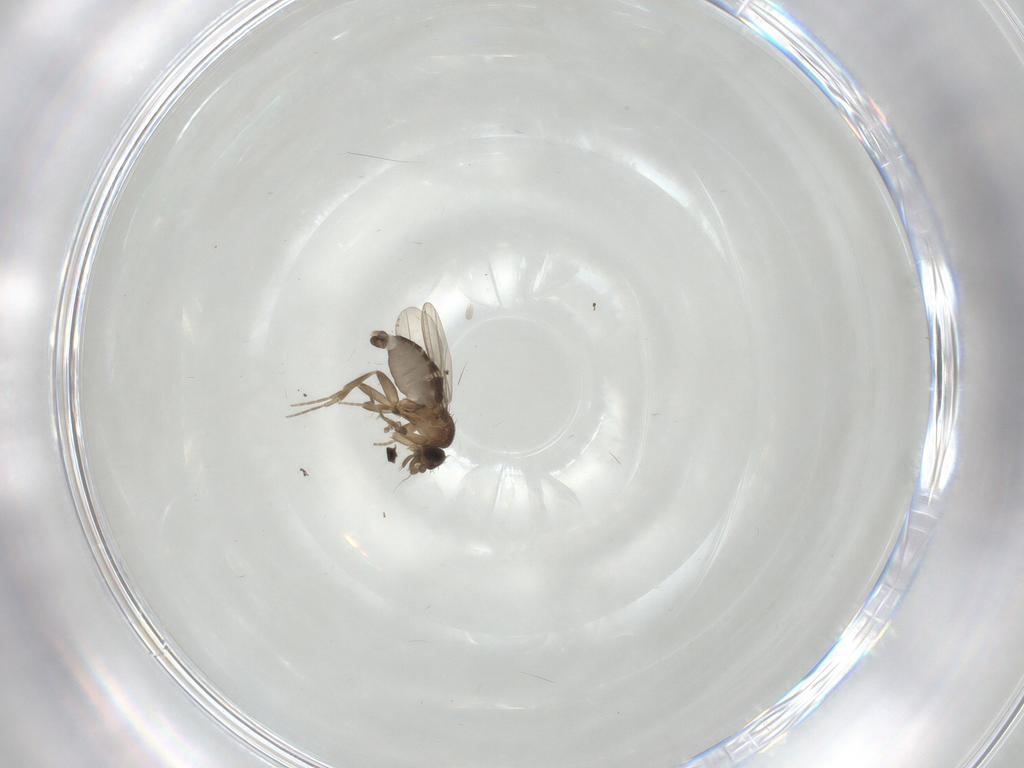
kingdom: Animalia
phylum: Arthropoda
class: Insecta
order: Diptera
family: Phoridae
